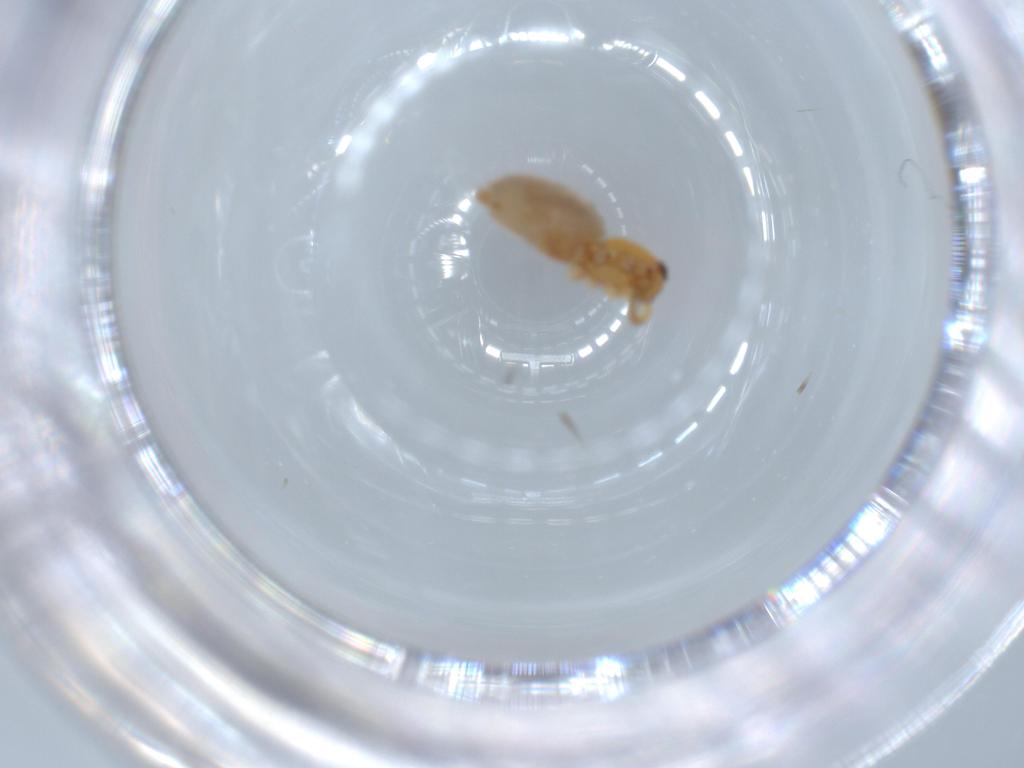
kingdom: Animalia
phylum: Arthropoda
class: Arachnida
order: Araneae
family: Oonopidae
